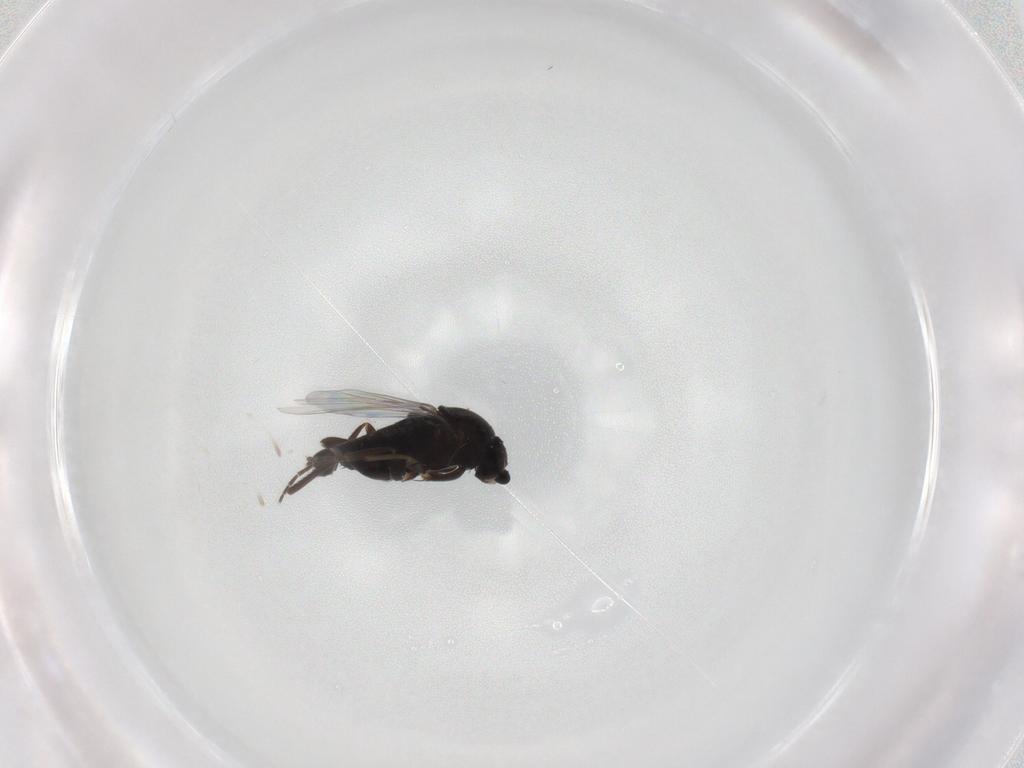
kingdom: Animalia
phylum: Arthropoda
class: Insecta
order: Diptera
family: Phoridae
